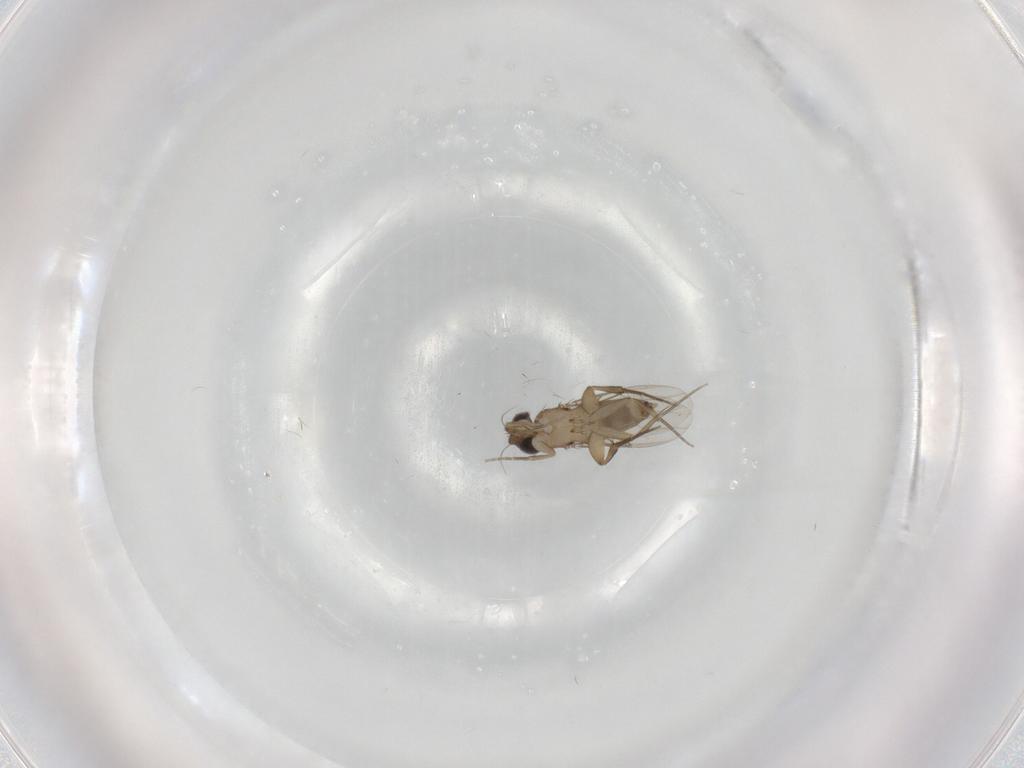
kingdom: Animalia
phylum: Arthropoda
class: Insecta
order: Diptera
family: Phoridae
